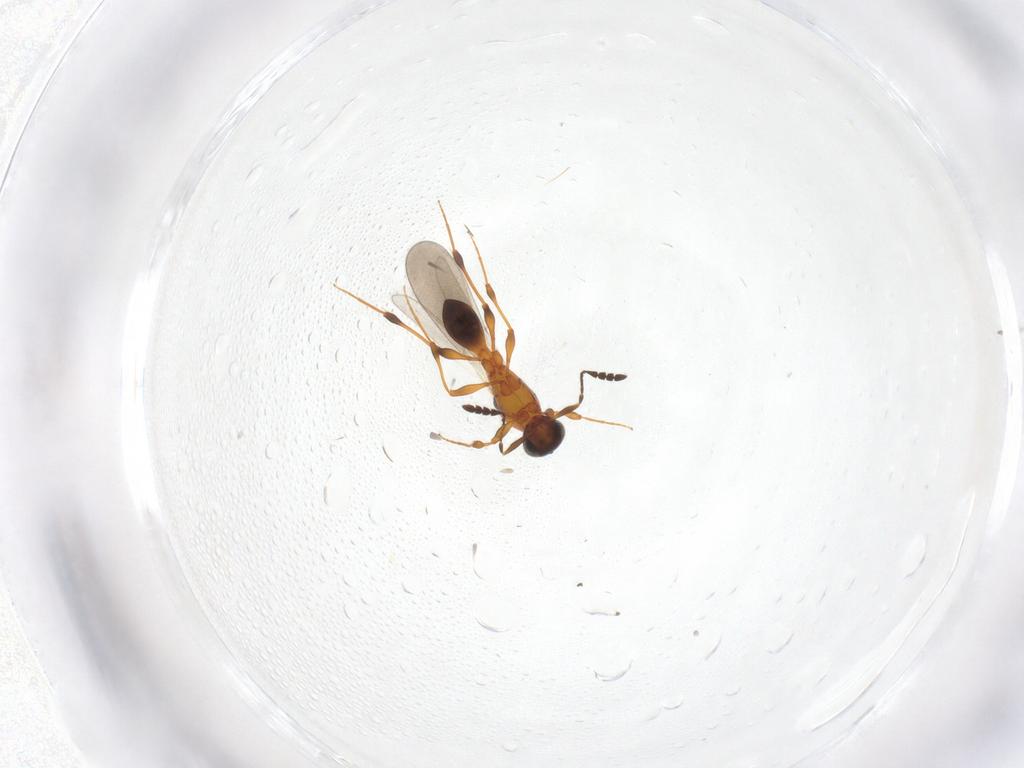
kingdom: Animalia
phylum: Arthropoda
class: Insecta
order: Hymenoptera
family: Platygastridae
